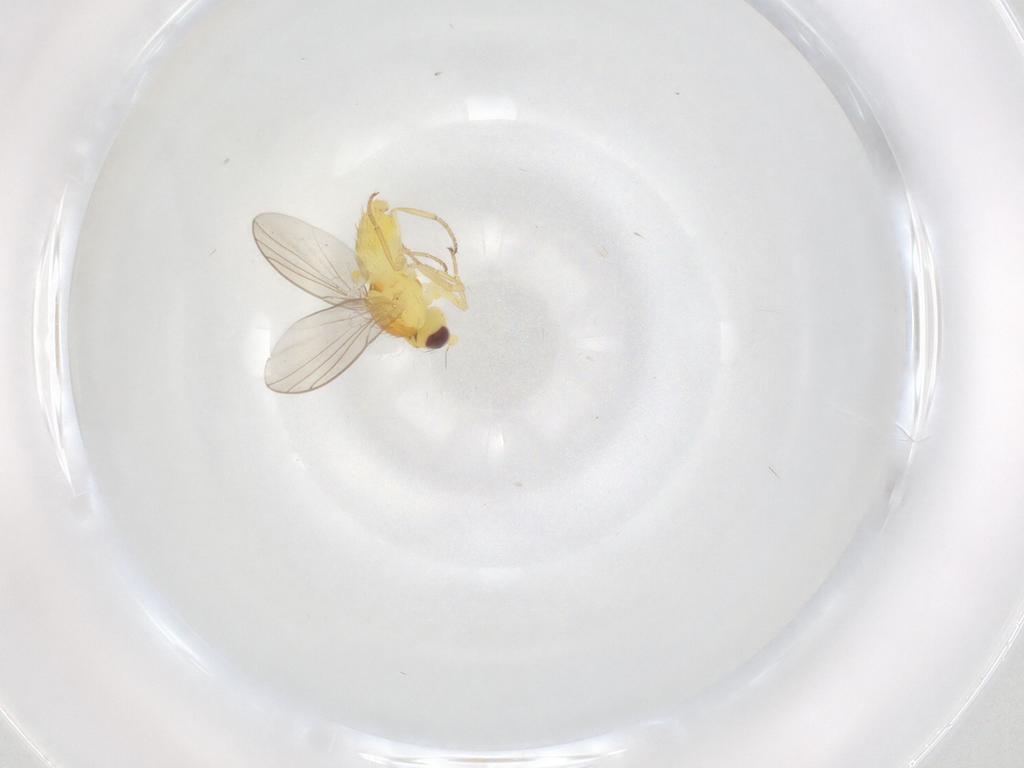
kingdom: Animalia
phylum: Arthropoda
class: Insecta
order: Diptera
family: Agromyzidae
